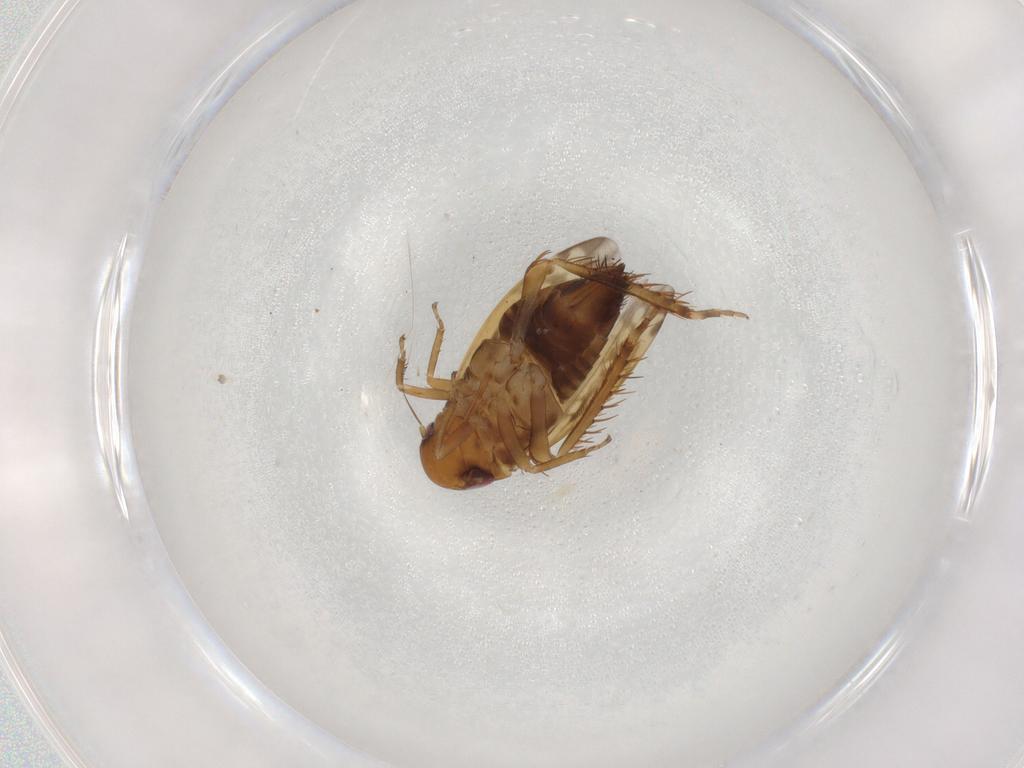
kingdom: Animalia
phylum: Arthropoda
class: Insecta
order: Hemiptera
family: Cicadellidae
